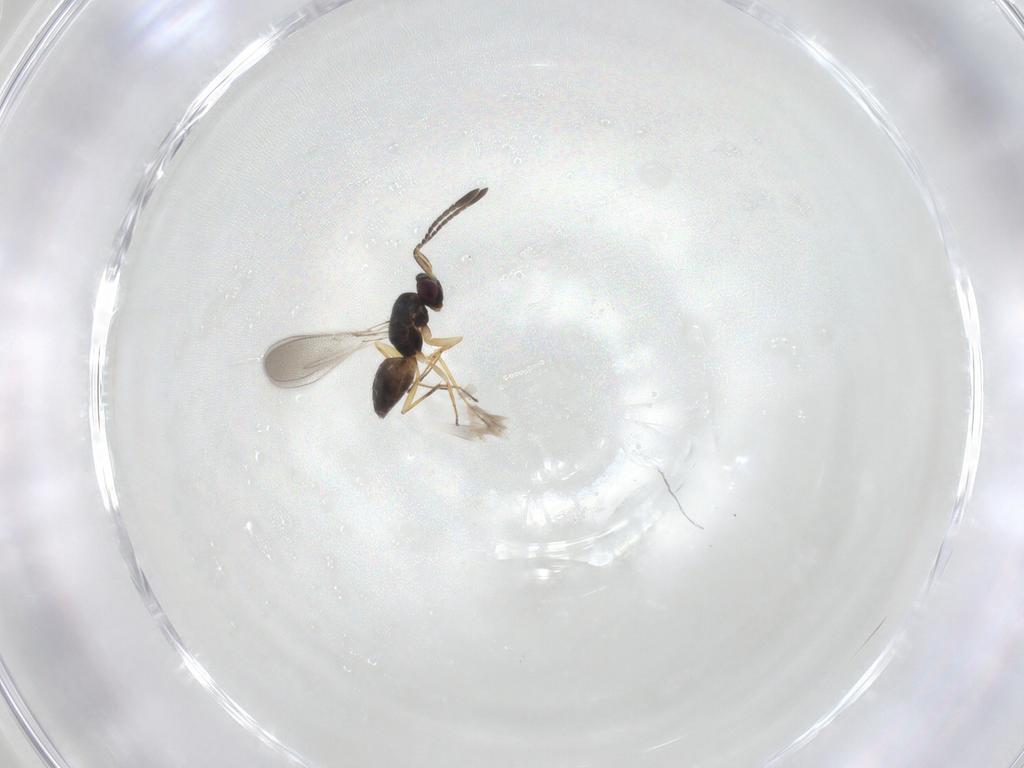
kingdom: Animalia
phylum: Arthropoda
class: Insecta
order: Hymenoptera
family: Mymaridae
